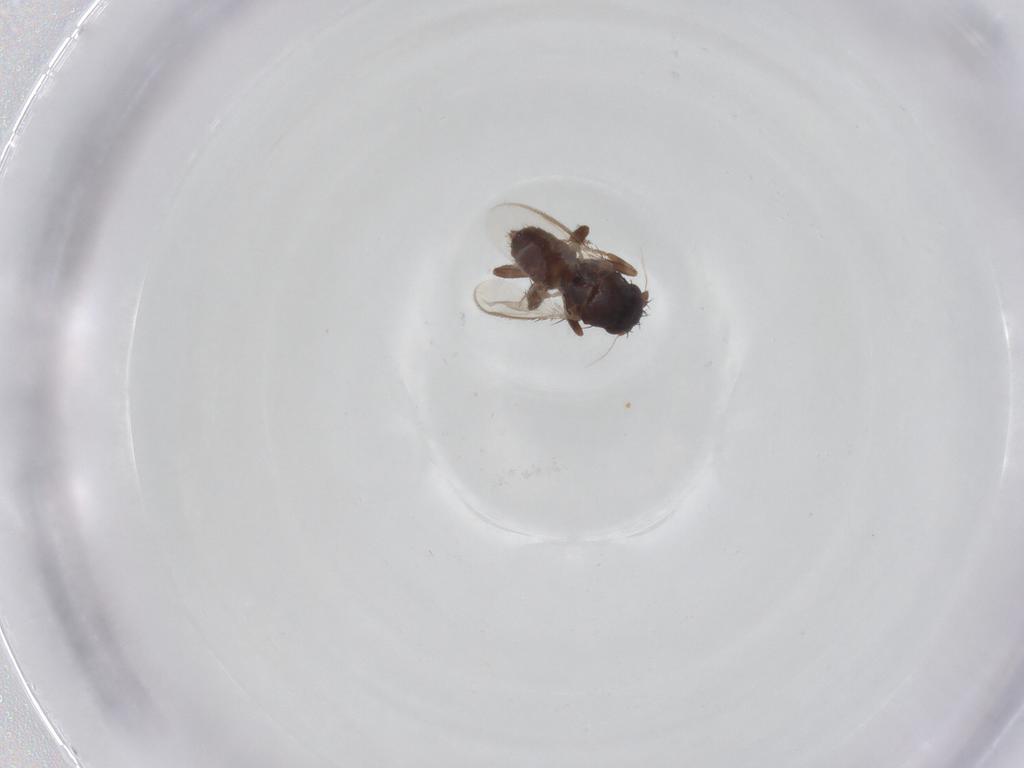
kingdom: Animalia
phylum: Arthropoda
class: Insecta
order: Diptera
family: Sphaeroceridae
